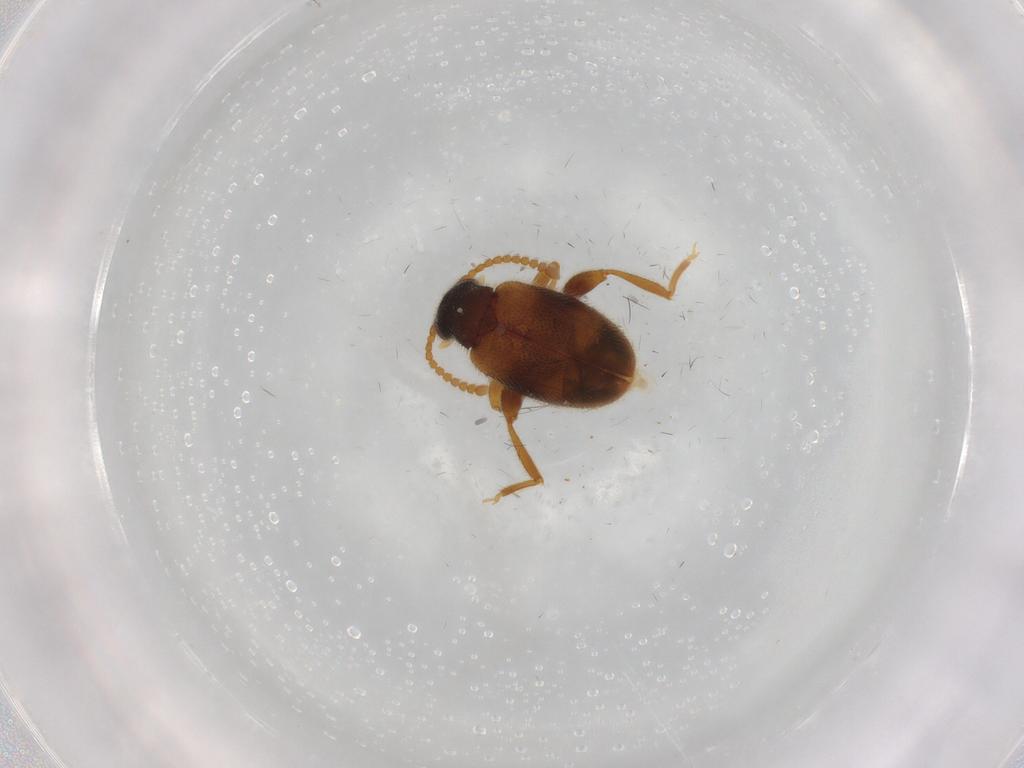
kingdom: Animalia
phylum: Arthropoda
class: Insecta
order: Coleoptera
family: Aderidae
